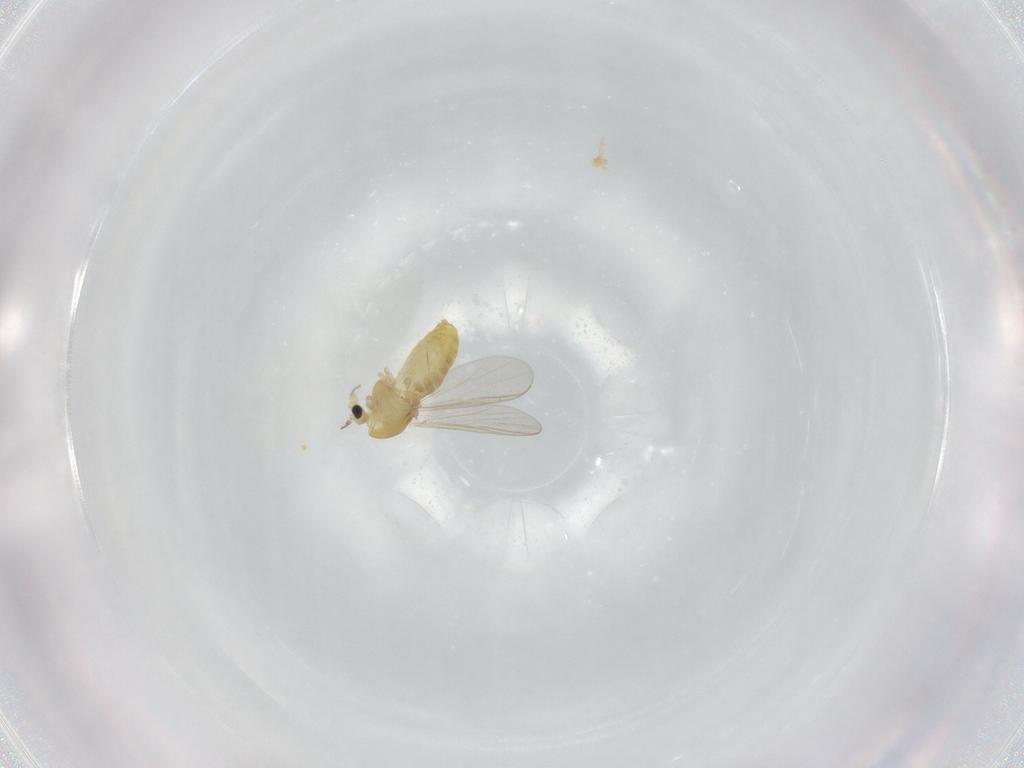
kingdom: Animalia
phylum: Arthropoda
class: Insecta
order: Diptera
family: Chironomidae
